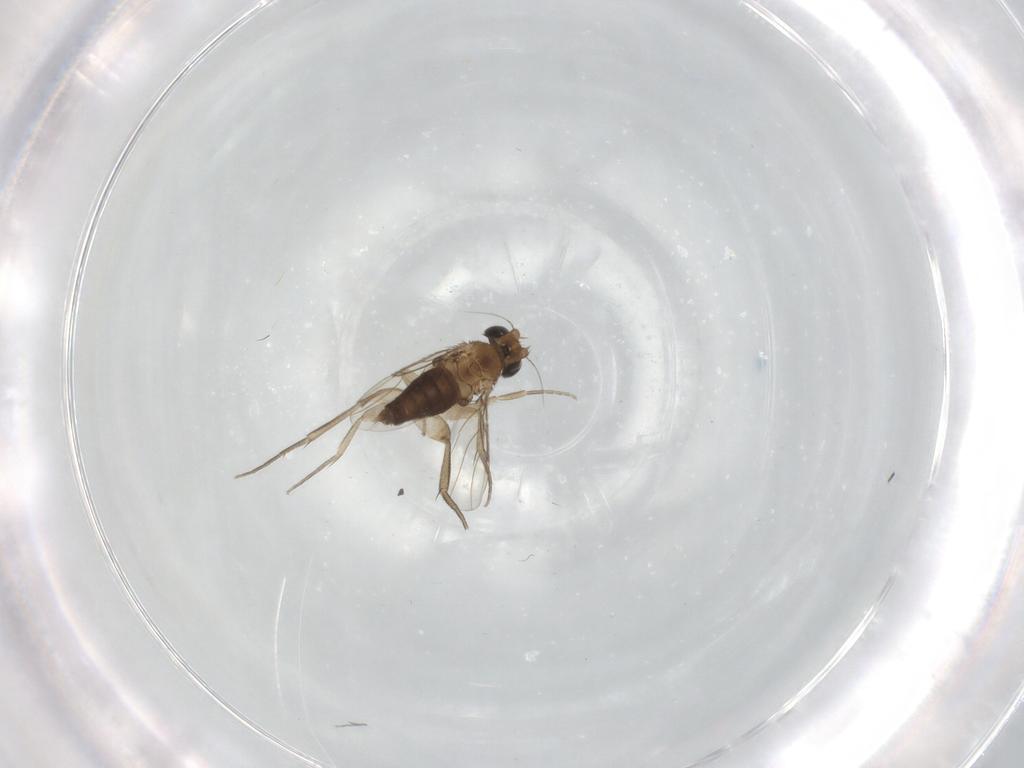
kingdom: Animalia
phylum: Arthropoda
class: Insecta
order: Diptera
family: Phoridae
